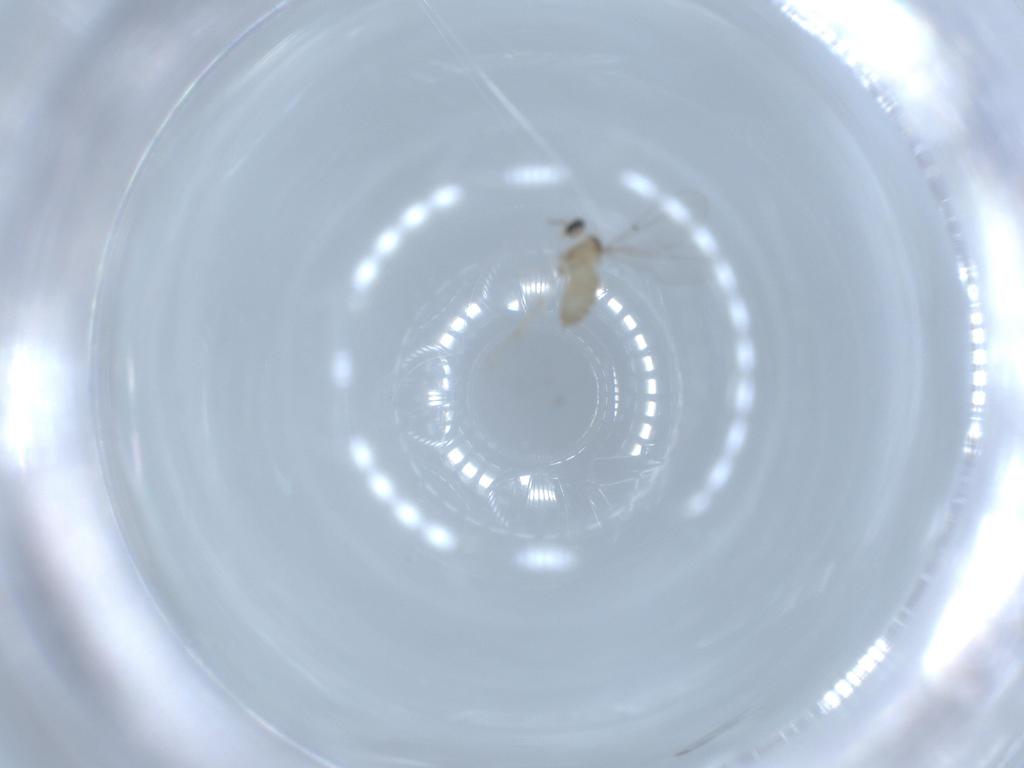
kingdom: Animalia
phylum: Arthropoda
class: Insecta
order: Diptera
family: Cecidomyiidae
